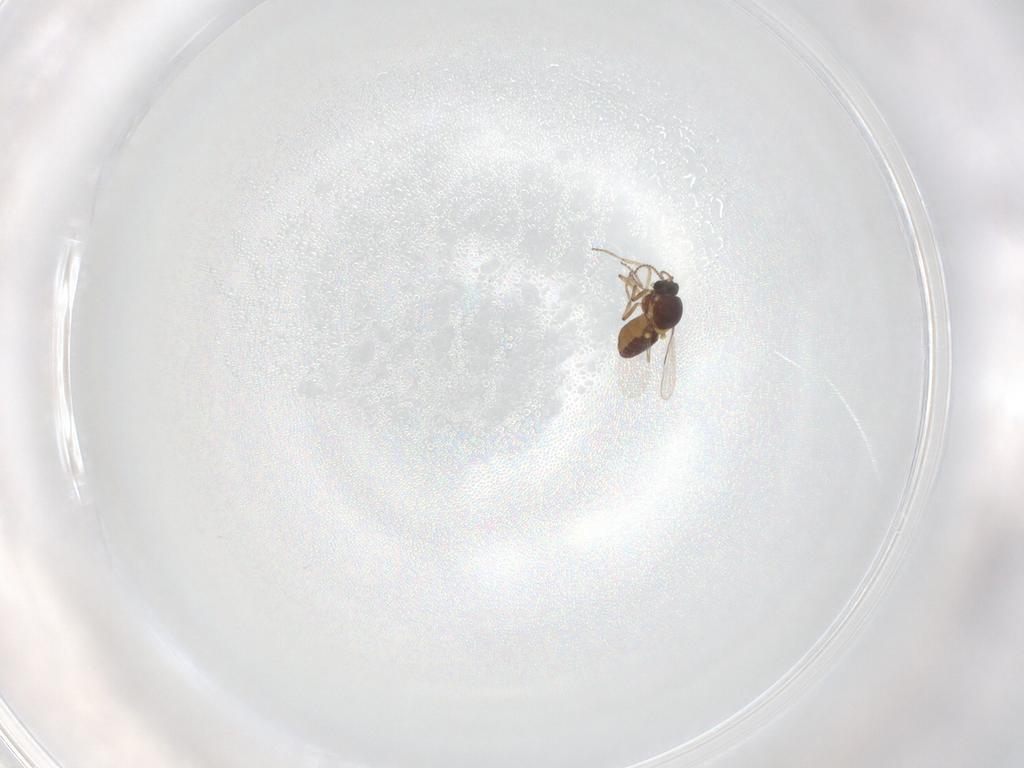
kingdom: Animalia
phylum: Arthropoda
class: Insecta
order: Diptera
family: Ceratopogonidae
